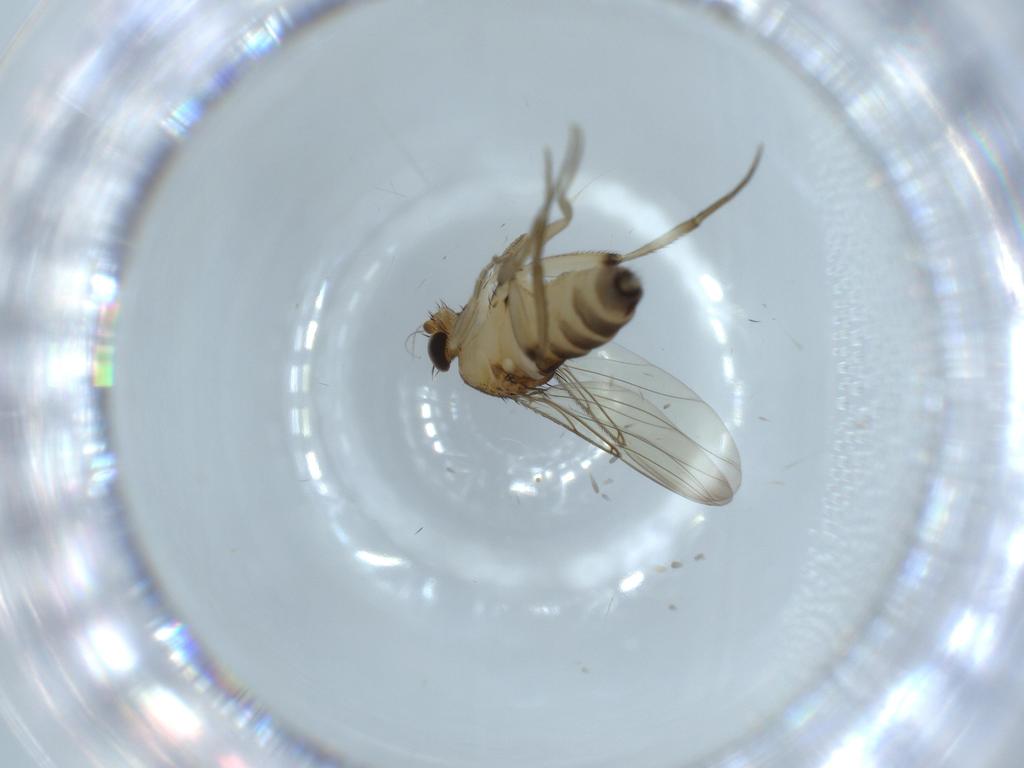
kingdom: Animalia
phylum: Arthropoda
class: Insecta
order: Diptera
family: Phoridae
